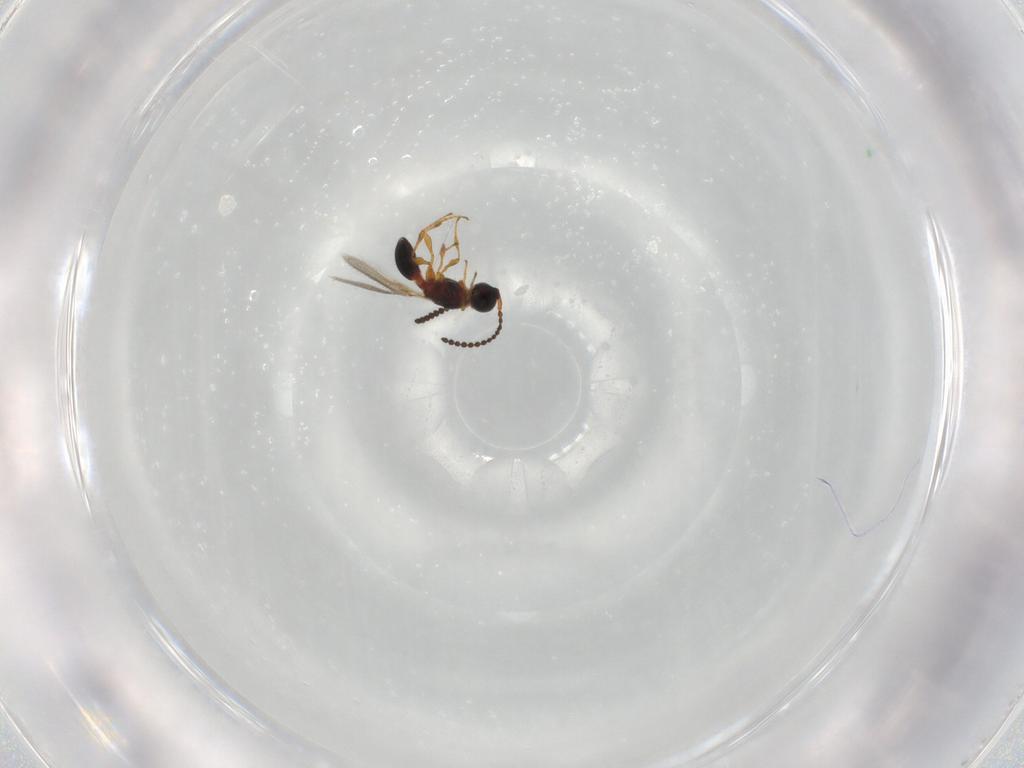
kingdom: Animalia
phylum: Arthropoda
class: Insecta
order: Hymenoptera
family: Diapriidae
